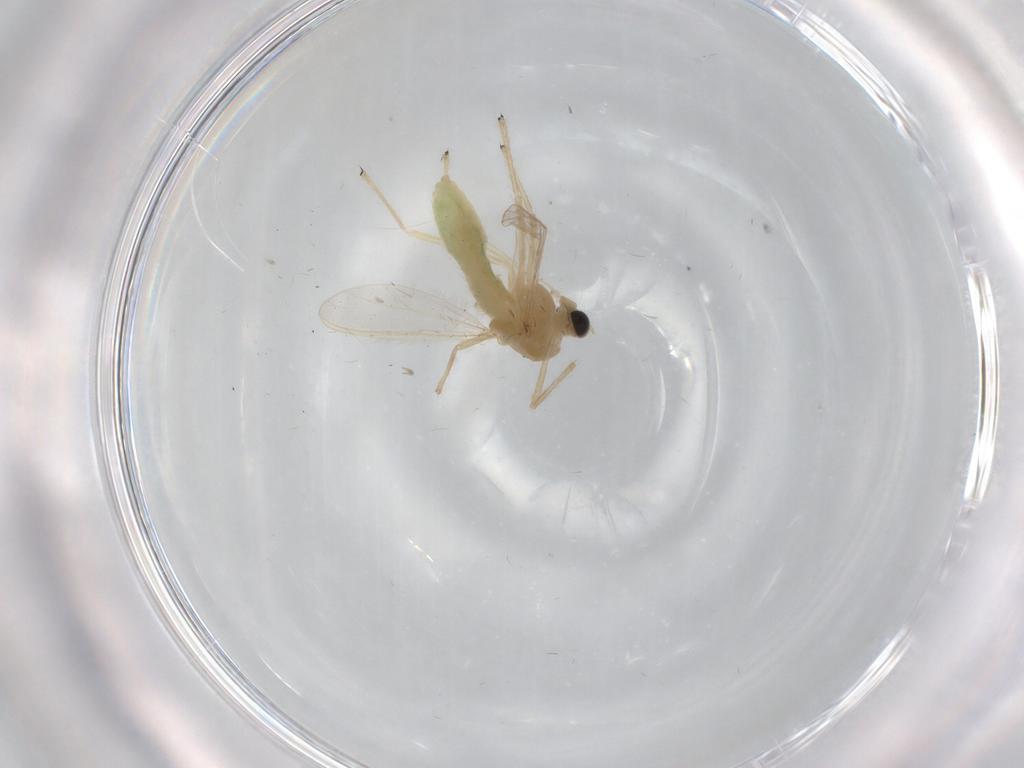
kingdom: Animalia
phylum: Arthropoda
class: Insecta
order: Diptera
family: Chironomidae
